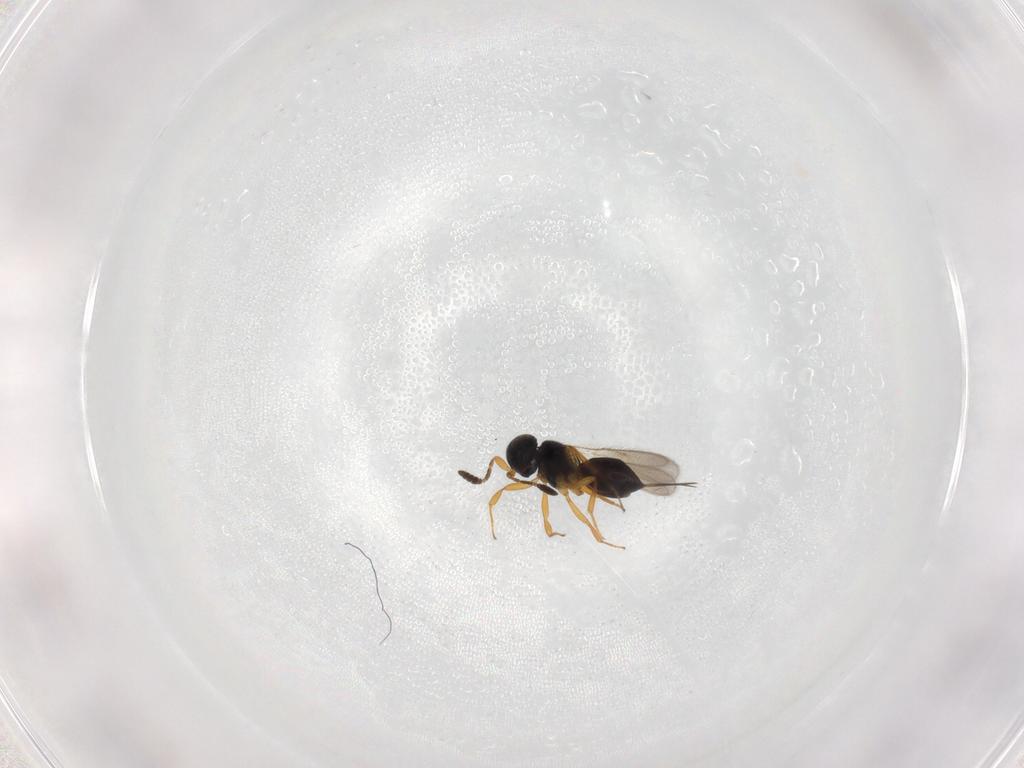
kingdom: Animalia
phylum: Arthropoda
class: Insecta
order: Hymenoptera
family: Scelionidae
